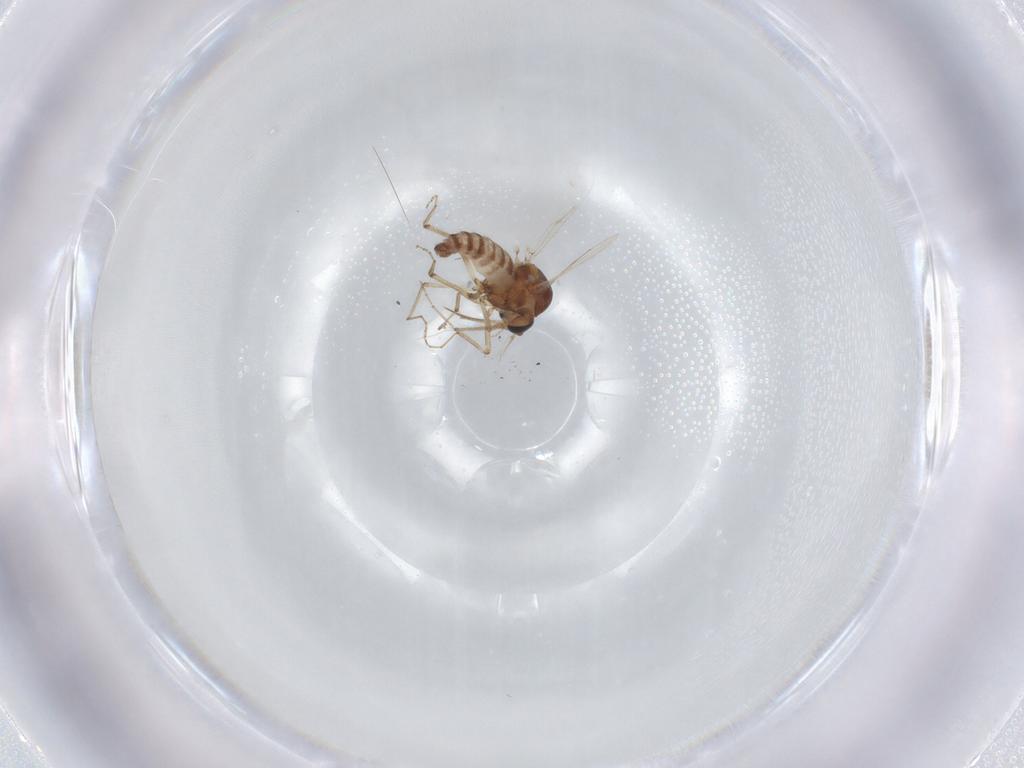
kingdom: Animalia
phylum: Arthropoda
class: Insecta
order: Diptera
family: Ceratopogonidae
